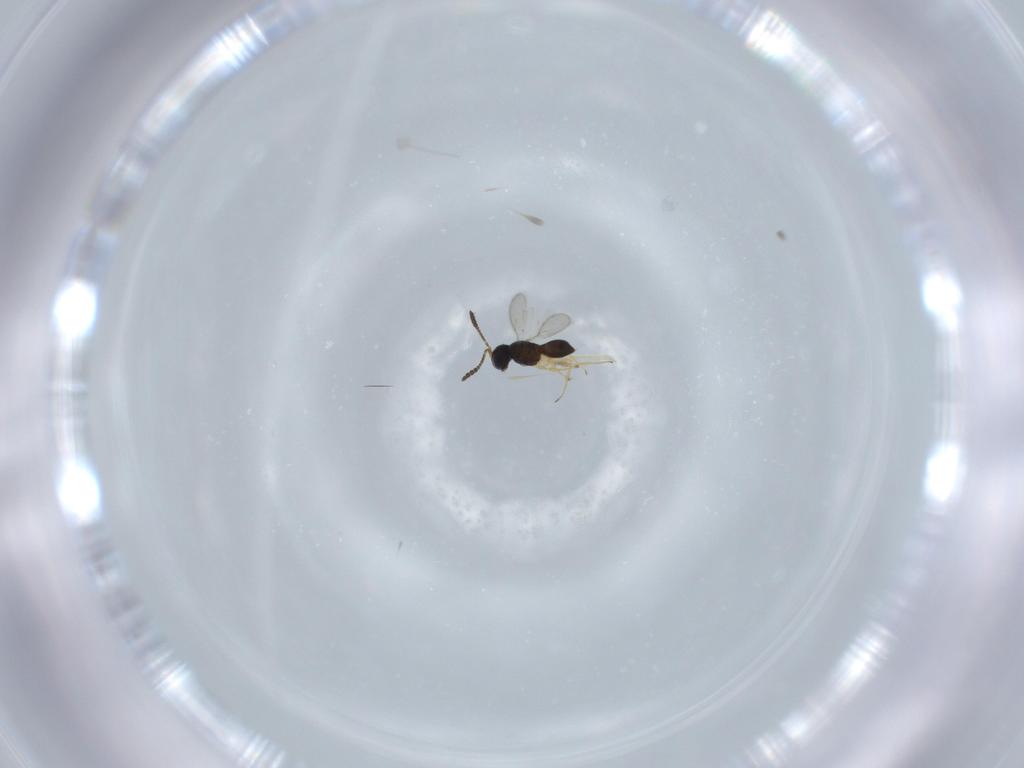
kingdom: Animalia
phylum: Arthropoda
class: Insecta
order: Hymenoptera
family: Scelionidae
